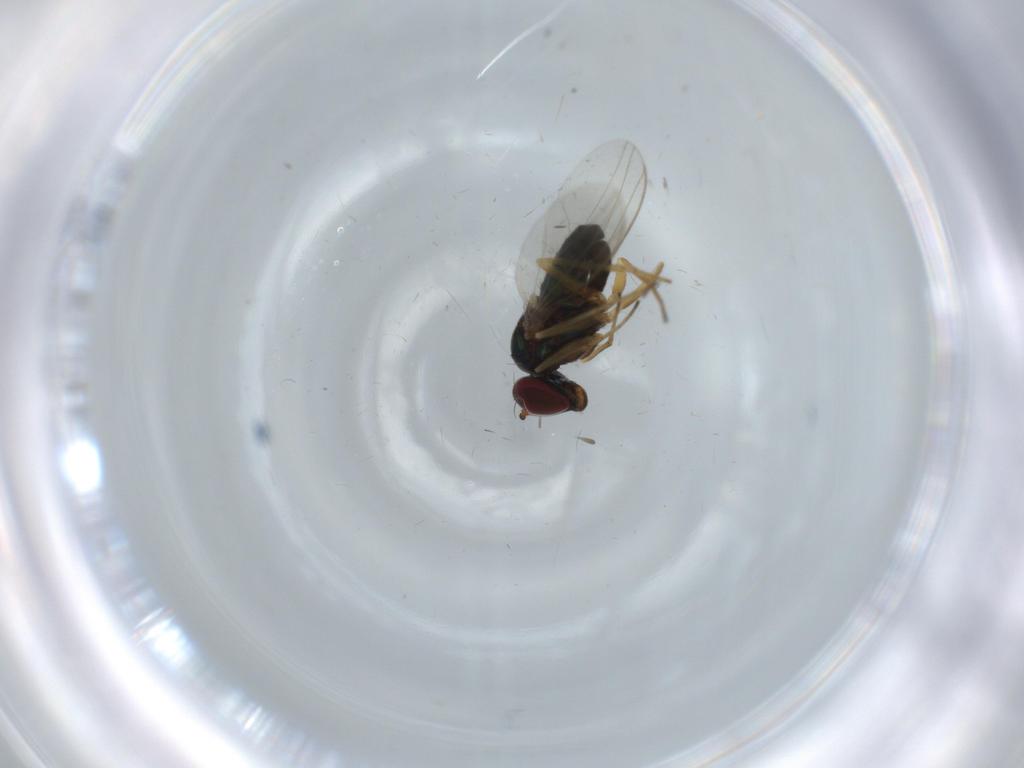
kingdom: Animalia
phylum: Arthropoda
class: Insecta
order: Diptera
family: Dolichopodidae
